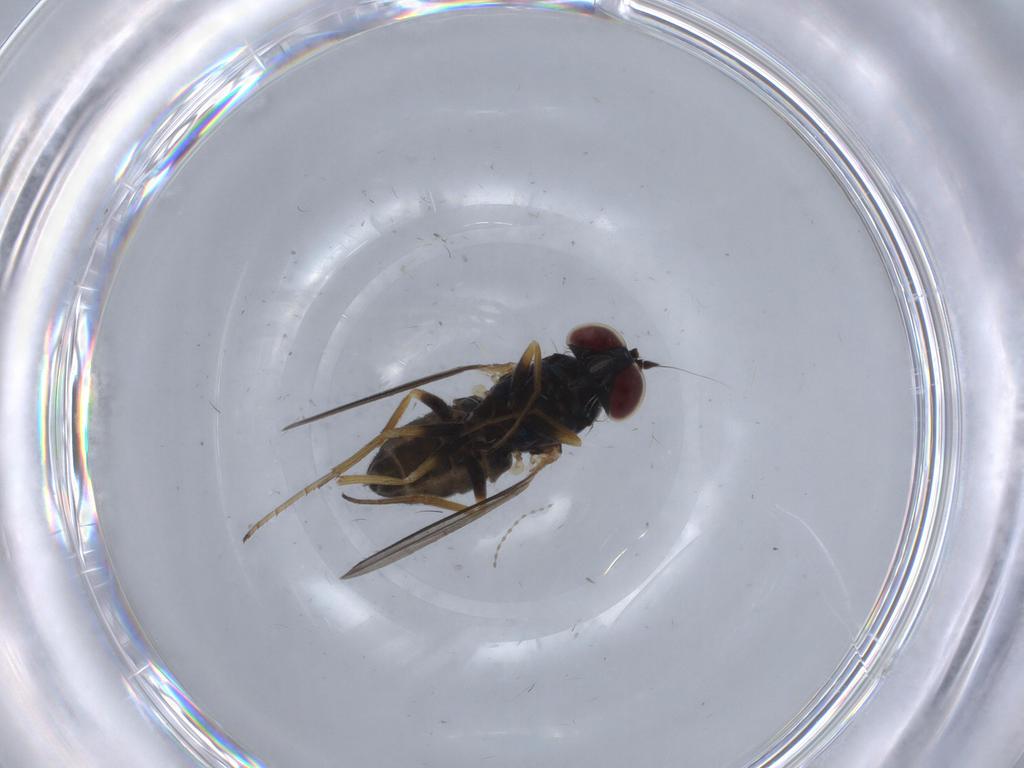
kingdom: Animalia
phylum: Arthropoda
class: Insecta
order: Diptera
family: Dolichopodidae
